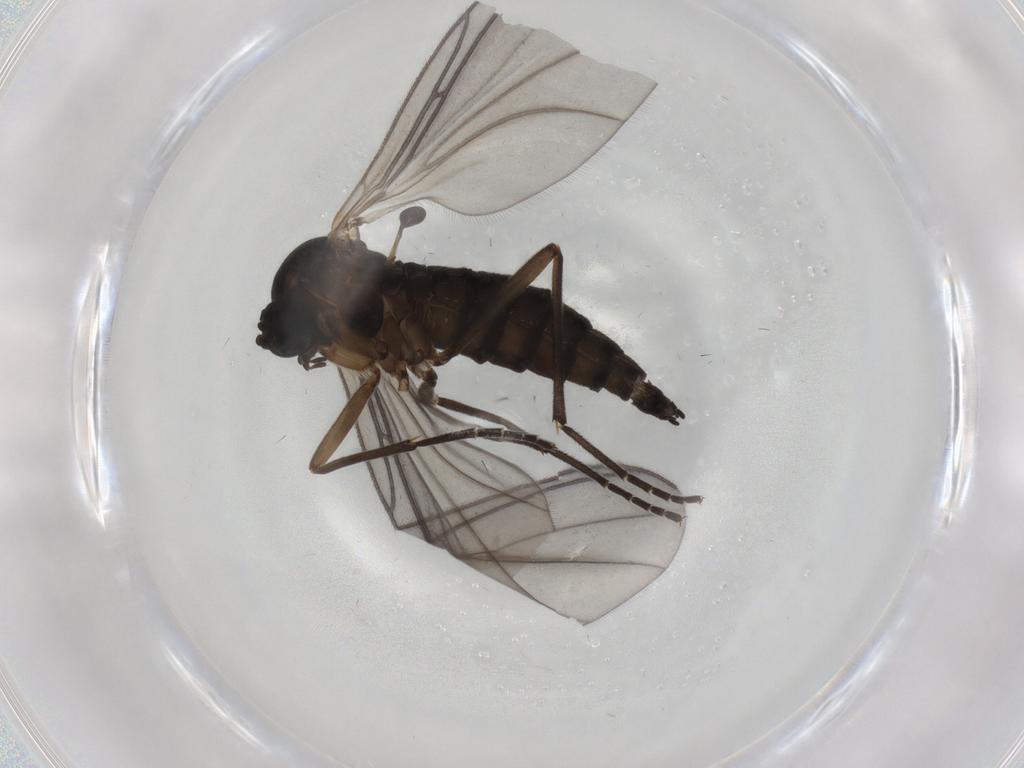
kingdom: Animalia
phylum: Arthropoda
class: Insecta
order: Diptera
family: Sciaridae
